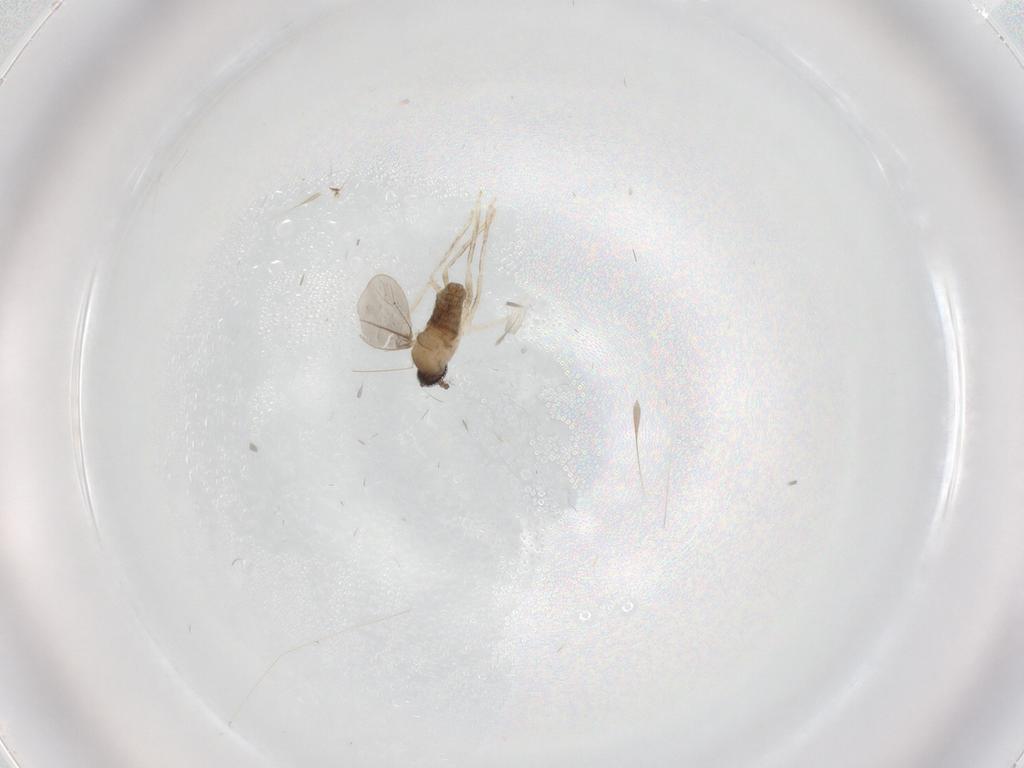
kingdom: Animalia
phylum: Arthropoda
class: Insecta
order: Diptera
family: Cecidomyiidae
